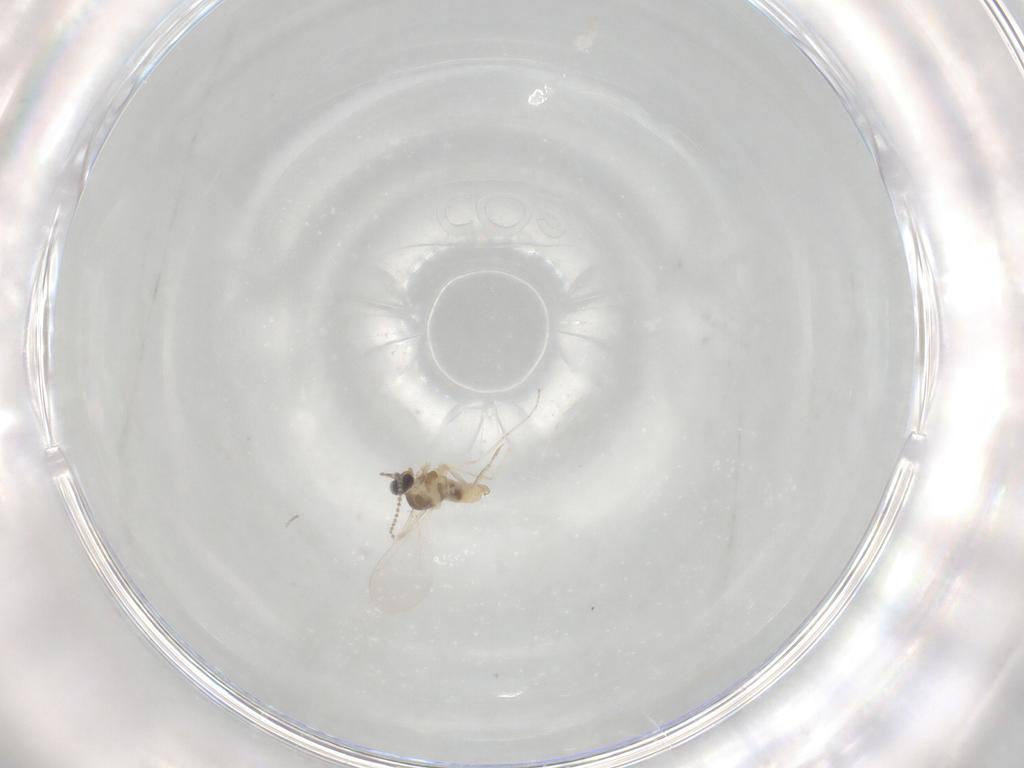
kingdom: Animalia
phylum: Arthropoda
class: Insecta
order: Diptera
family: Cecidomyiidae
